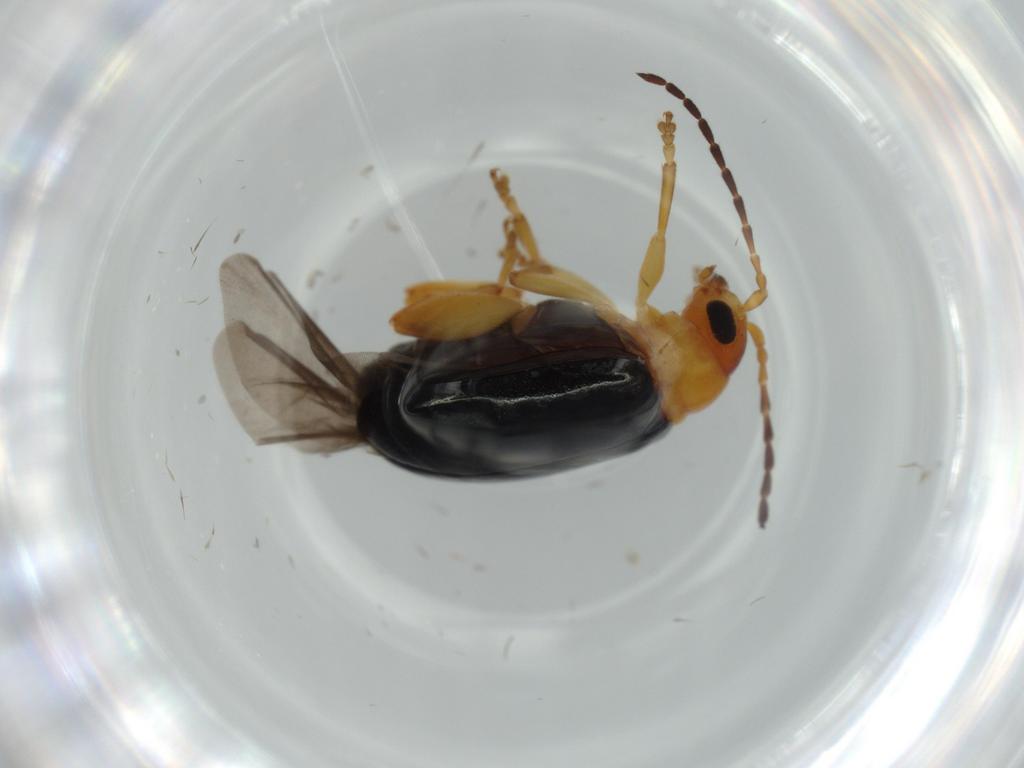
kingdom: Animalia
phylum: Arthropoda
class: Insecta
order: Coleoptera
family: Chrysomelidae
